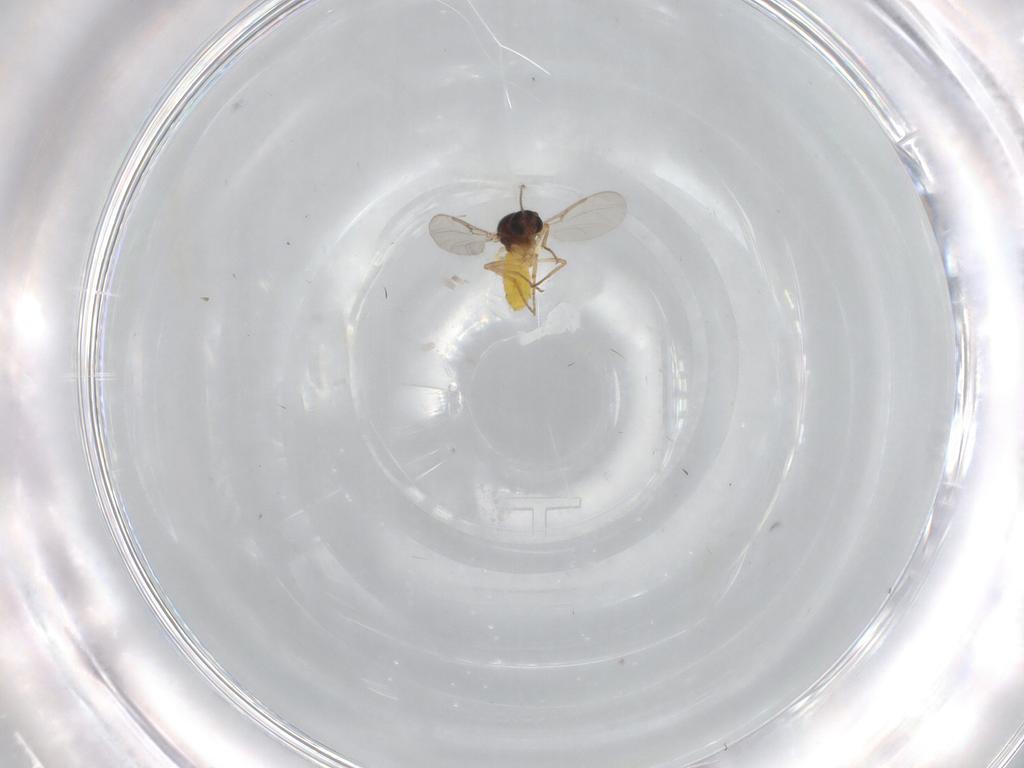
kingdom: Animalia
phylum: Arthropoda
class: Insecta
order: Diptera
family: Ceratopogonidae
